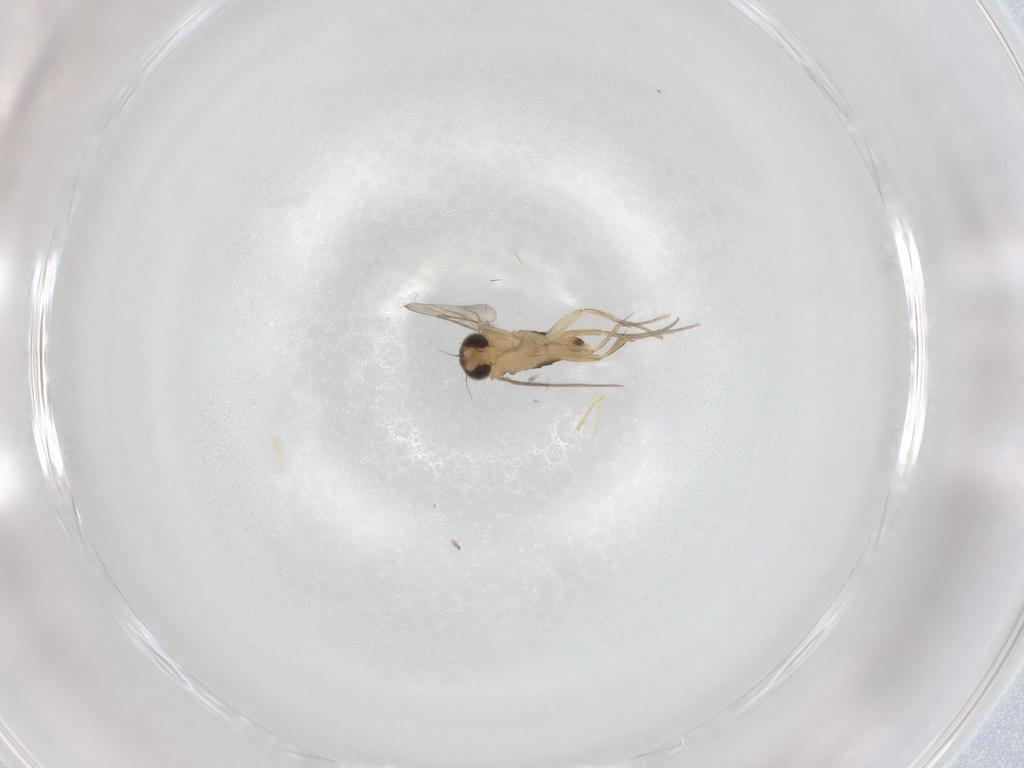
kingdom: Animalia
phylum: Arthropoda
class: Insecta
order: Diptera
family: Phoridae
